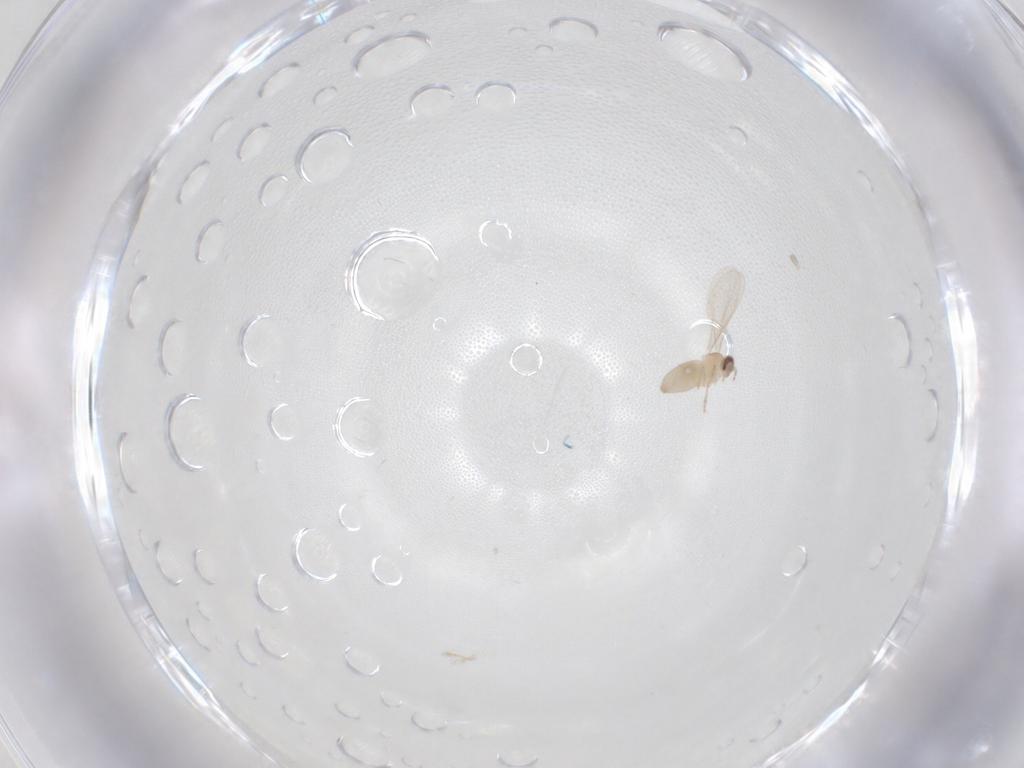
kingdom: Animalia
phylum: Arthropoda
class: Insecta
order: Diptera
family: Cecidomyiidae
